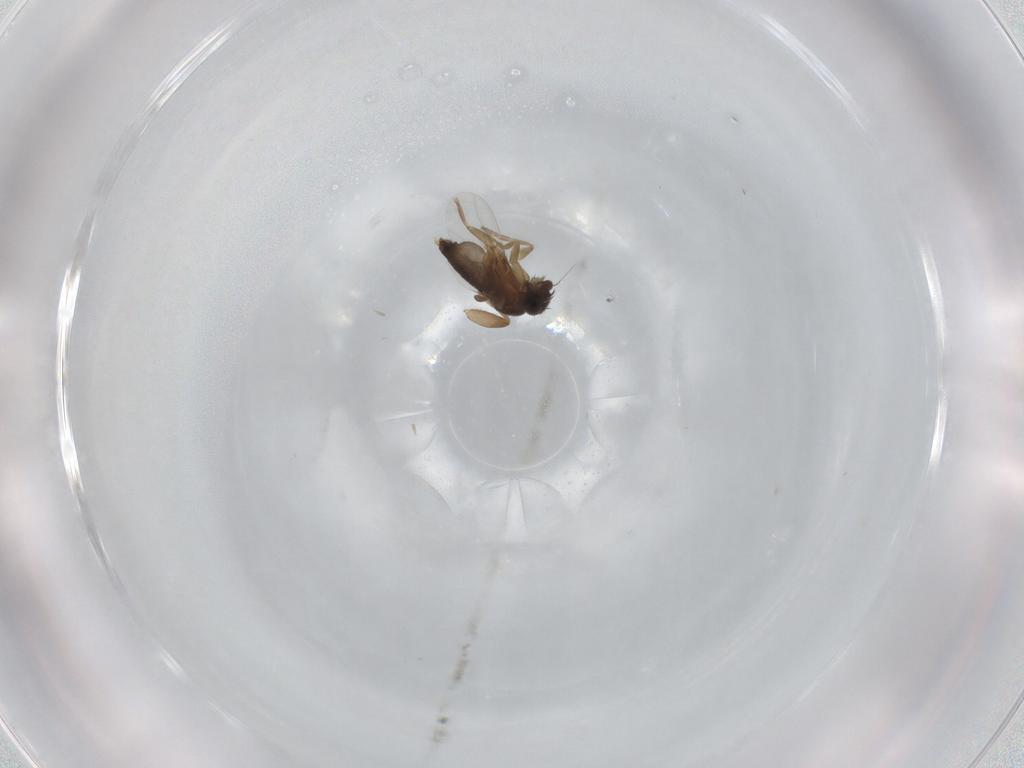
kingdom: Animalia
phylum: Arthropoda
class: Insecta
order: Diptera
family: Phoridae
